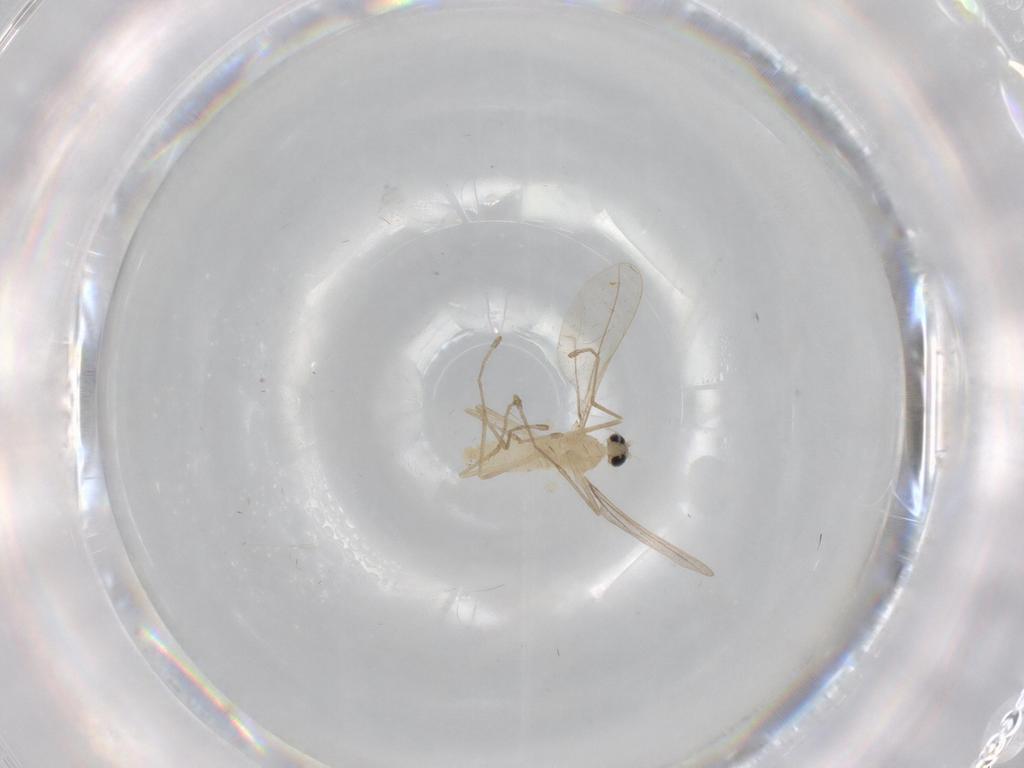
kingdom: Animalia
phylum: Arthropoda
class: Insecta
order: Diptera
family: Cecidomyiidae
